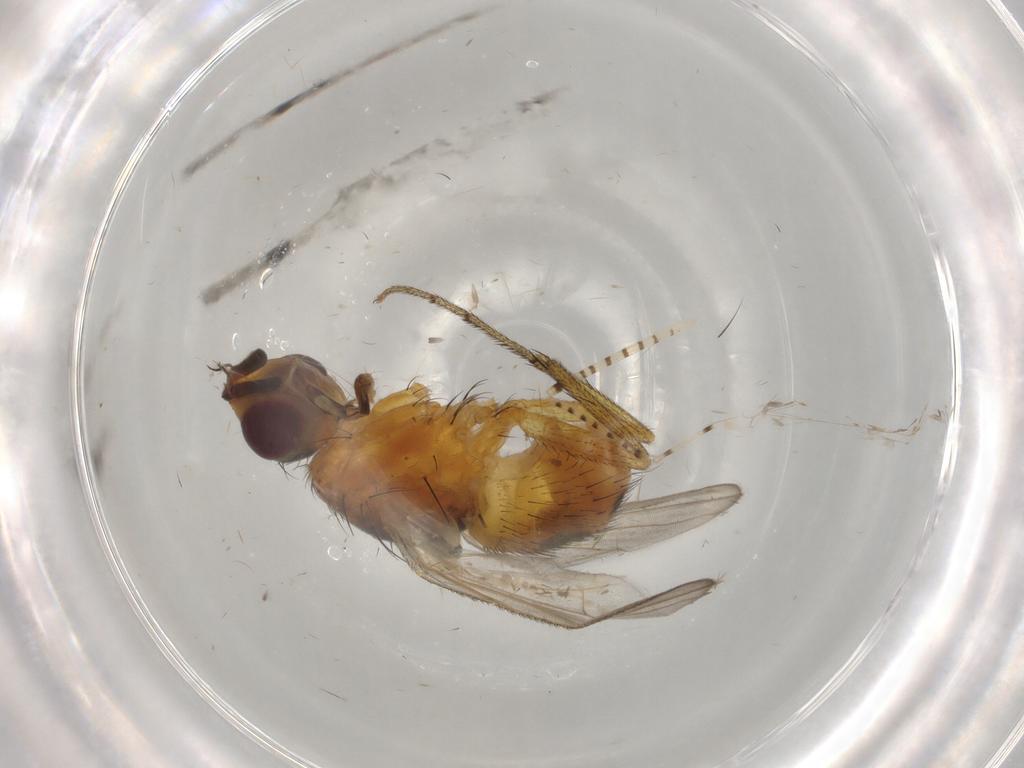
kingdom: Animalia
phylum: Arthropoda
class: Insecta
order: Diptera
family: Muscidae
